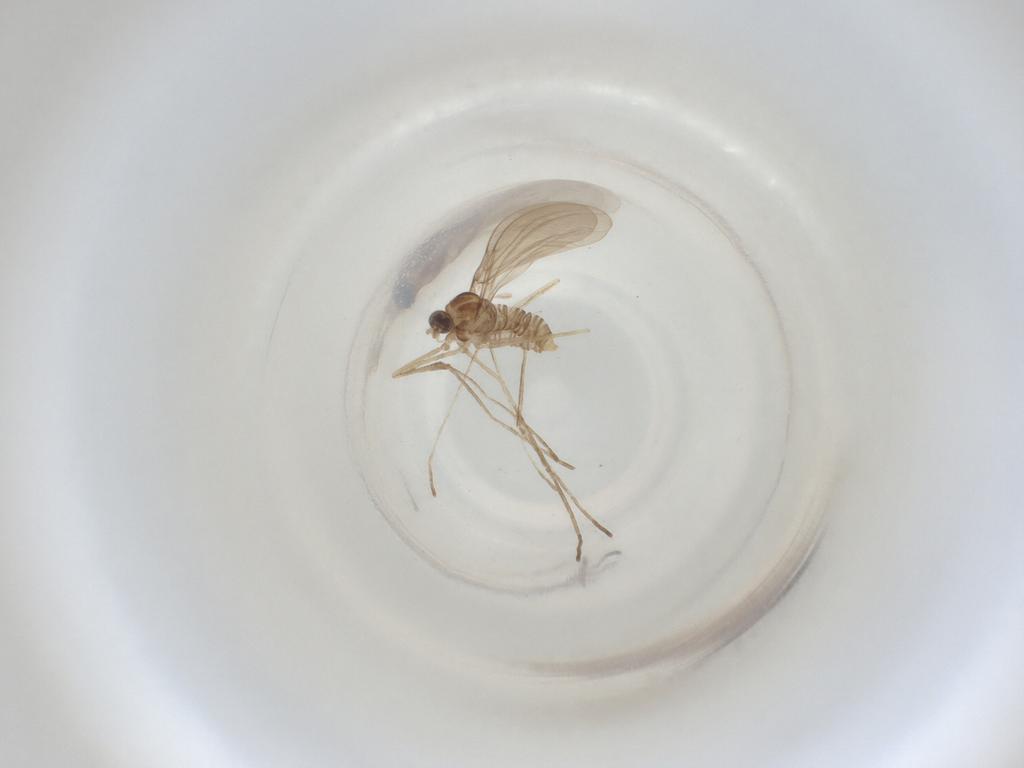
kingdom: Animalia
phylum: Arthropoda
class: Insecta
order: Diptera
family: Cecidomyiidae
